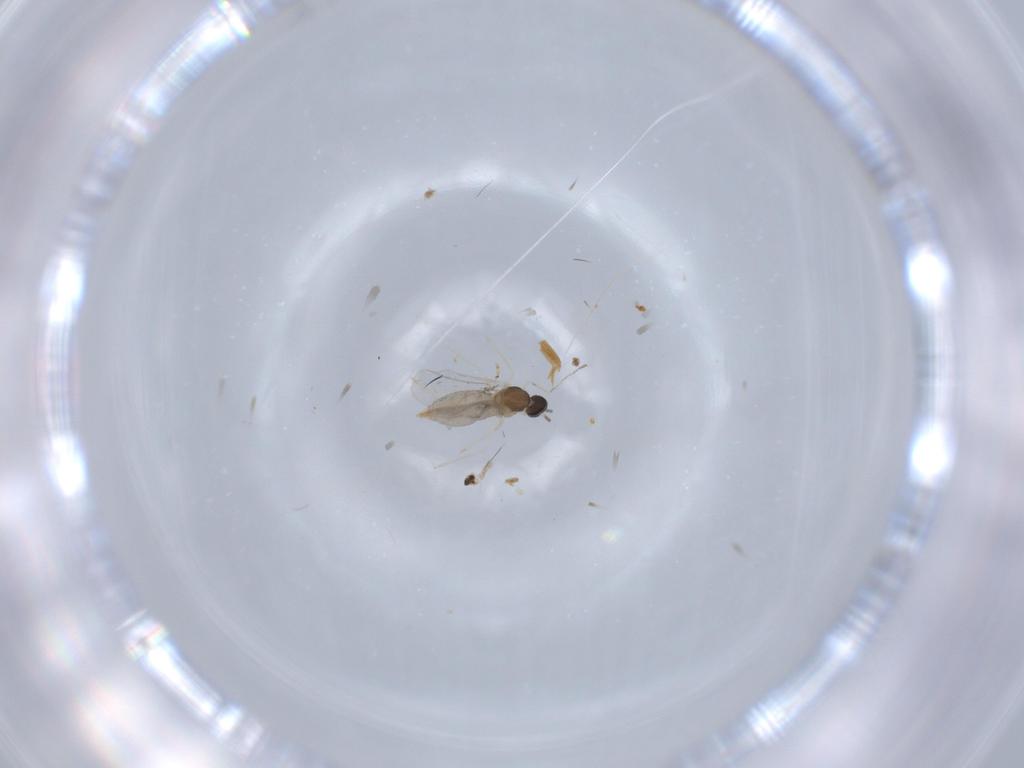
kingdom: Animalia
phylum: Arthropoda
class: Insecta
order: Diptera
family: Cecidomyiidae
